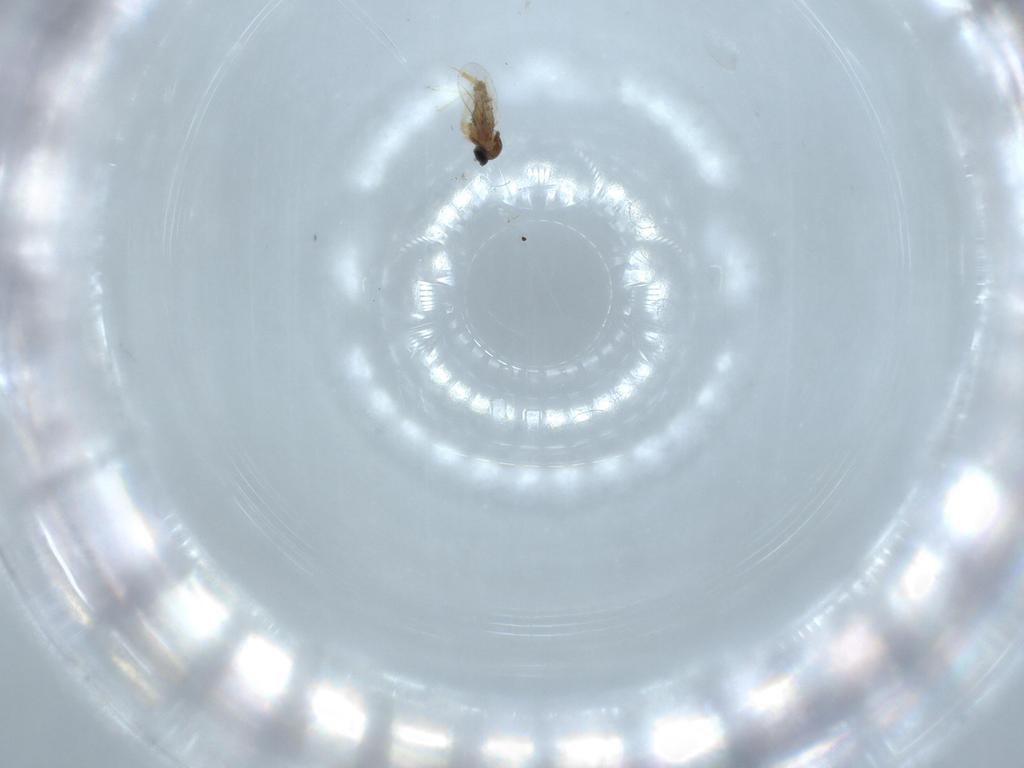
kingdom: Animalia
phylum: Arthropoda
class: Insecta
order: Diptera
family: Cecidomyiidae
